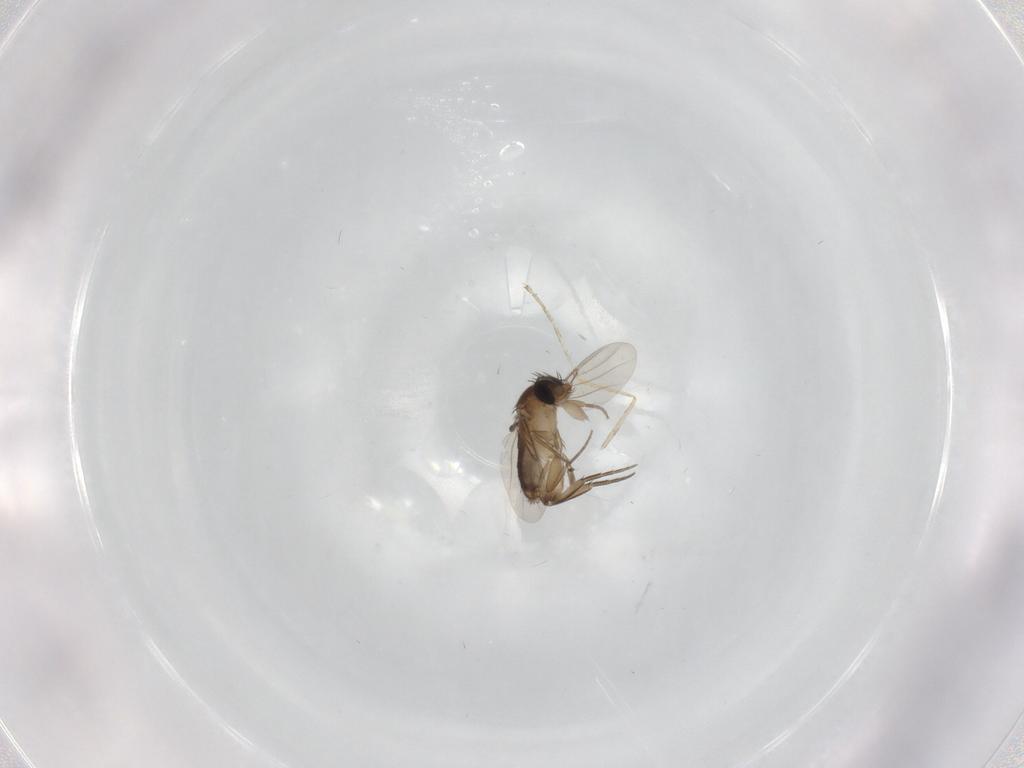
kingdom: Animalia
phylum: Arthropoda
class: Insecta
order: Diptera
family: Phoridae
